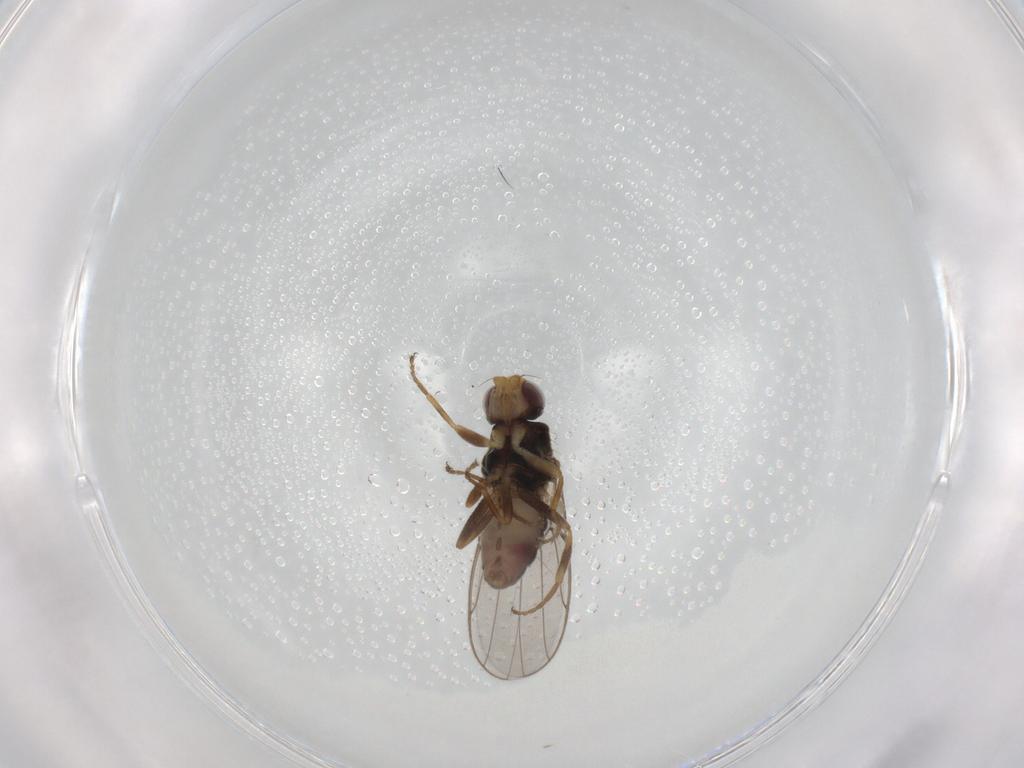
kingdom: Animalia
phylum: Arthropoda
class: Insecta
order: Diptera
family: Chloropidae
